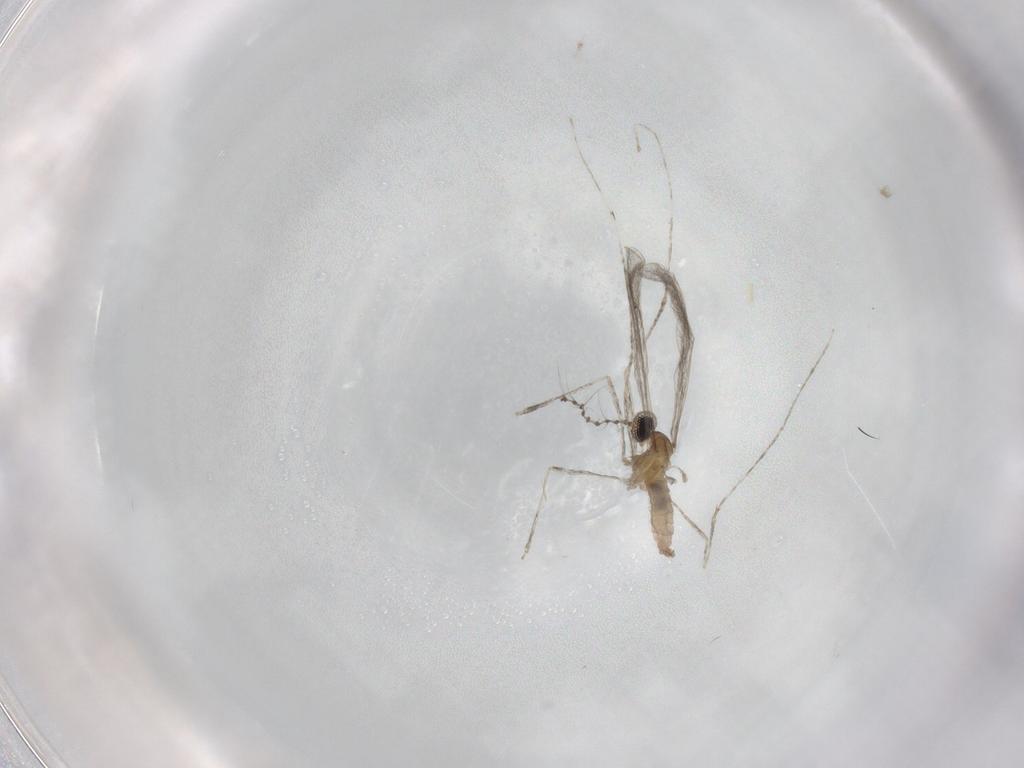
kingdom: Animalia
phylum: Arthropoda
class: Insecta
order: Diptera
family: Cecidomyiidae
